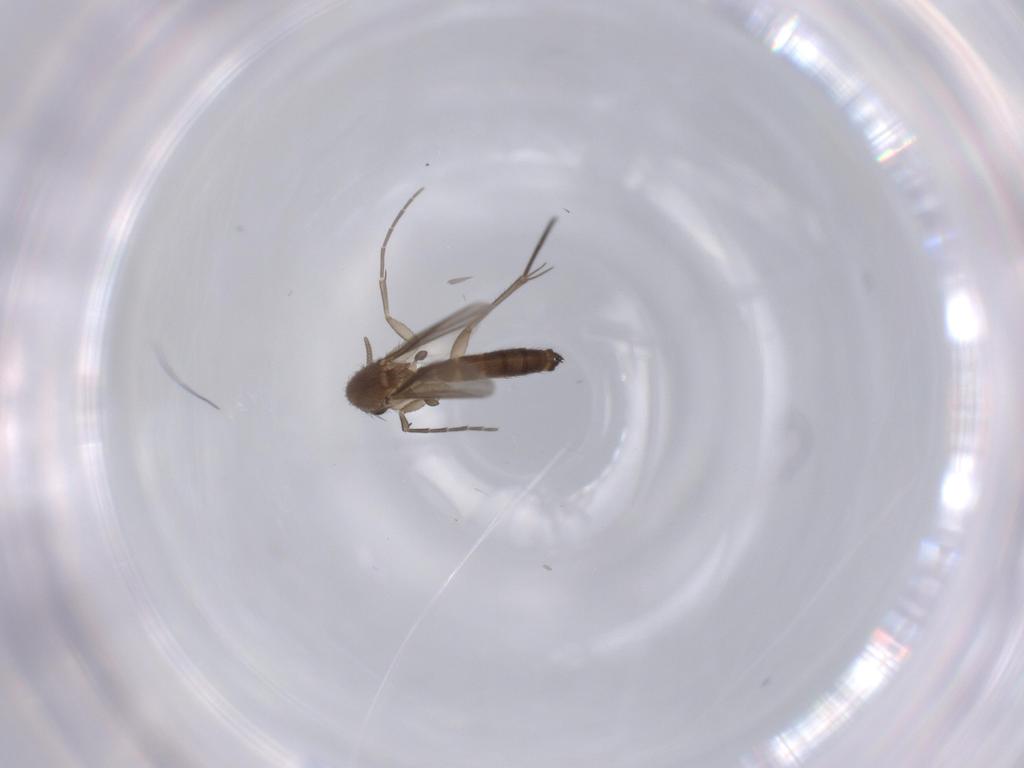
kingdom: Animalia
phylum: Arthropoda
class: Insecta
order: Diptera
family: Mycetophilidae
